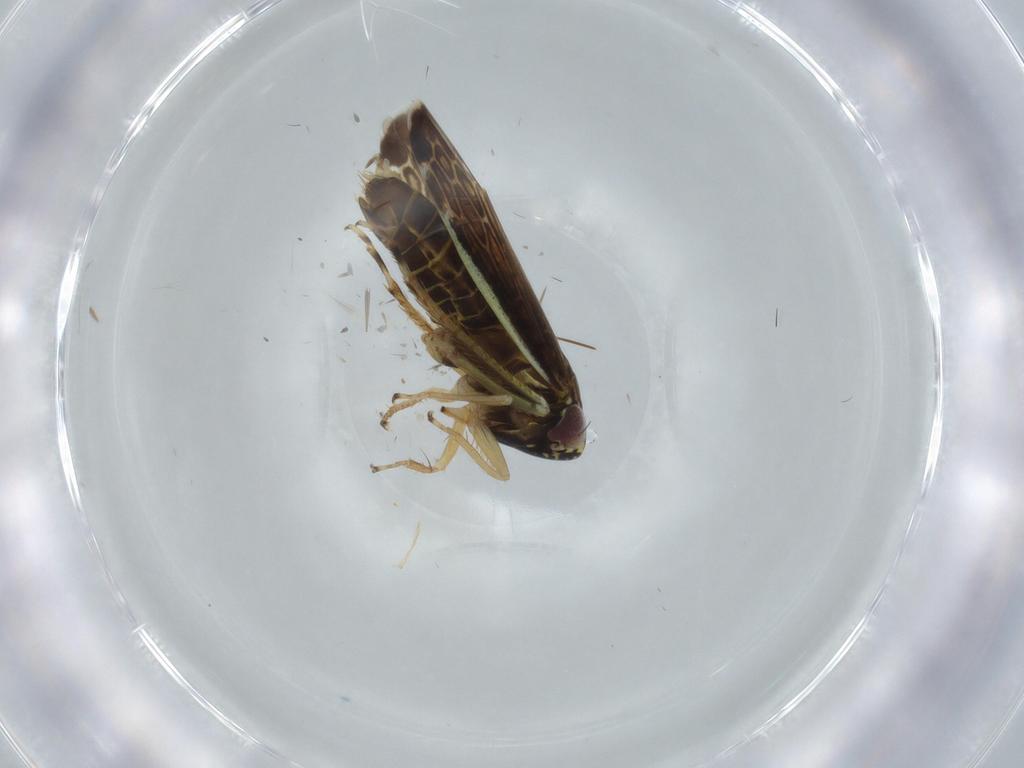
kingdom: Animalia
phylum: Arthropoda
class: Insecta
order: Hemiptera
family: Cicadellidae
